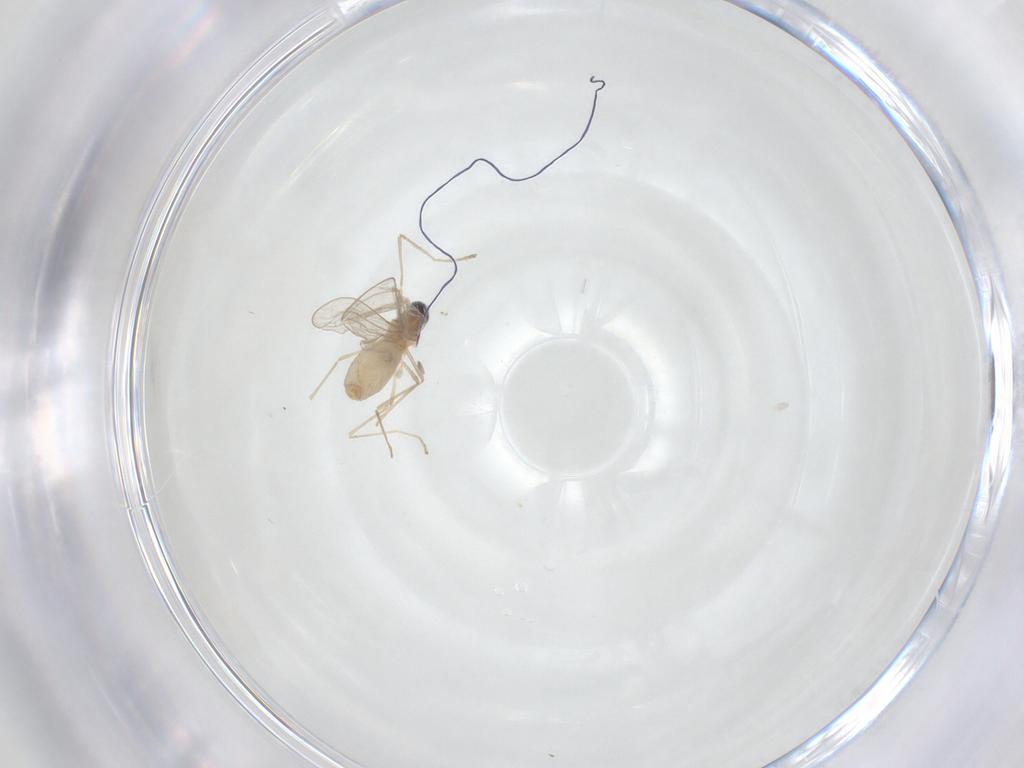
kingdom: Animalia
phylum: Arthropoda
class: Insecta
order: Diptera
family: Cecidomyiidae
